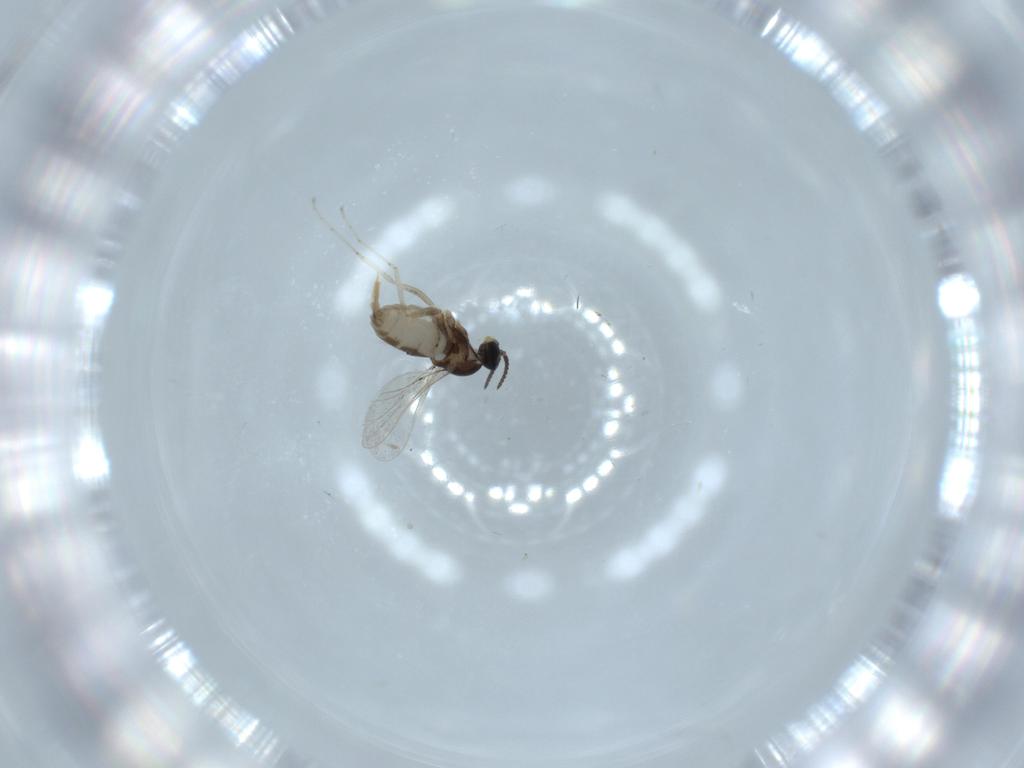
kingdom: Animalia
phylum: Arthropoda
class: Insecta
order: Diptera
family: Cecidomyiidae
